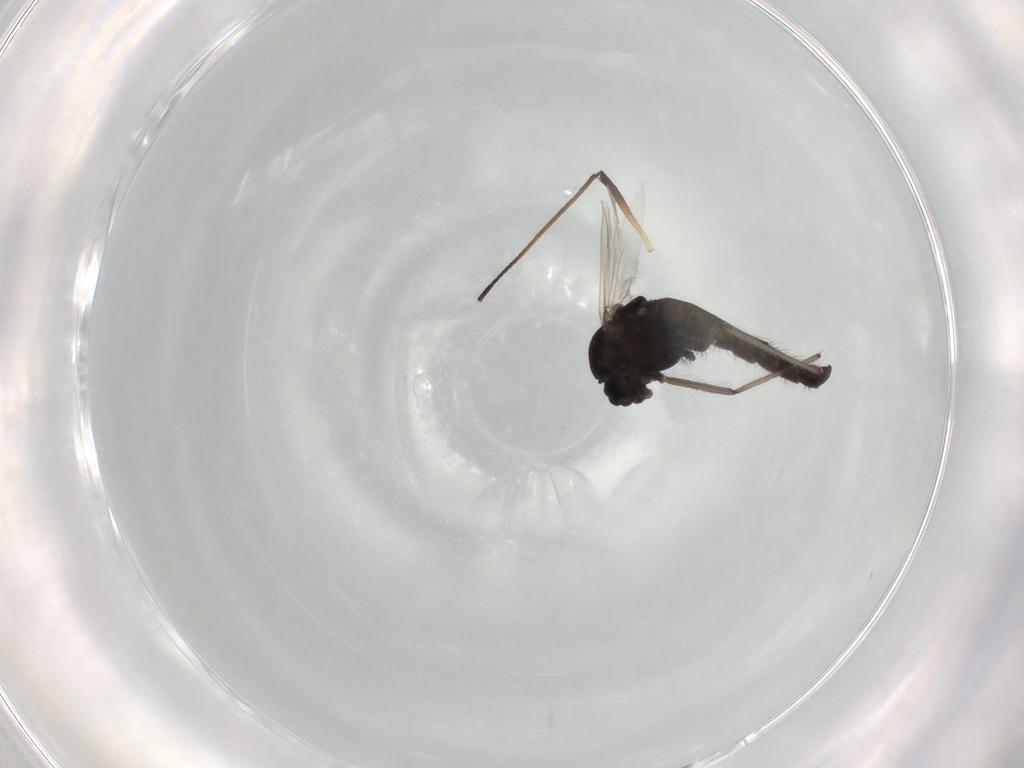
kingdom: Animalia
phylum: Arthropoda
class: Insecta
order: Diptera
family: Chironomidae
